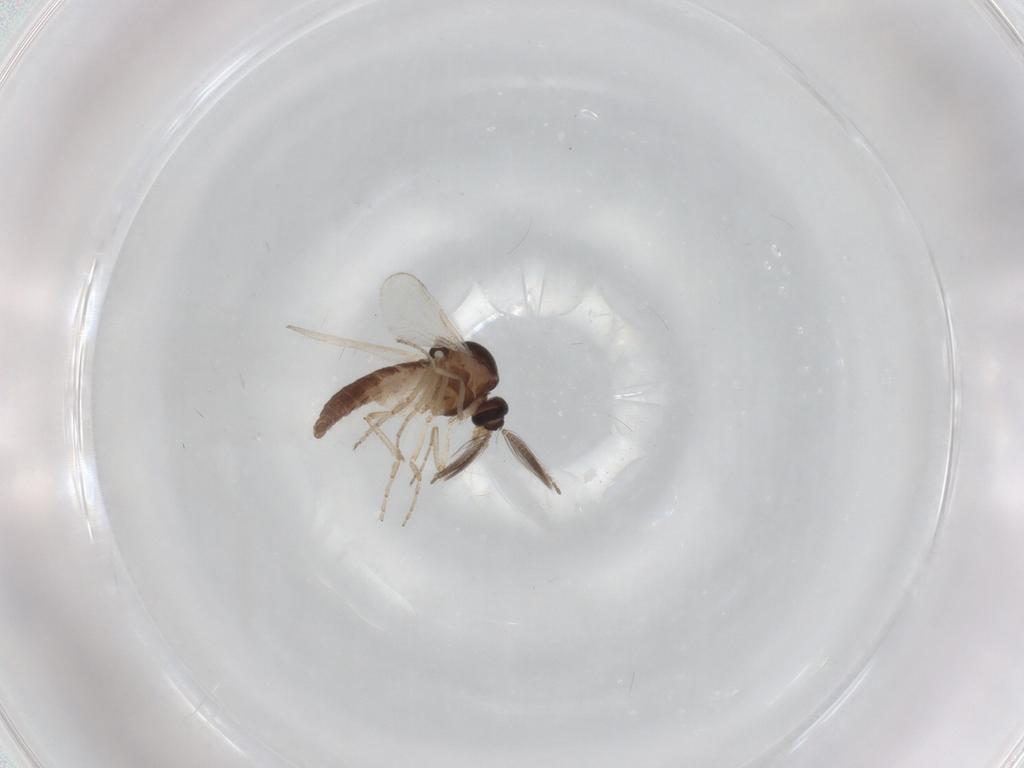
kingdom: Animalia
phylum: Arthropoda
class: Insecta
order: Diptera
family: Ceratopogonidae
